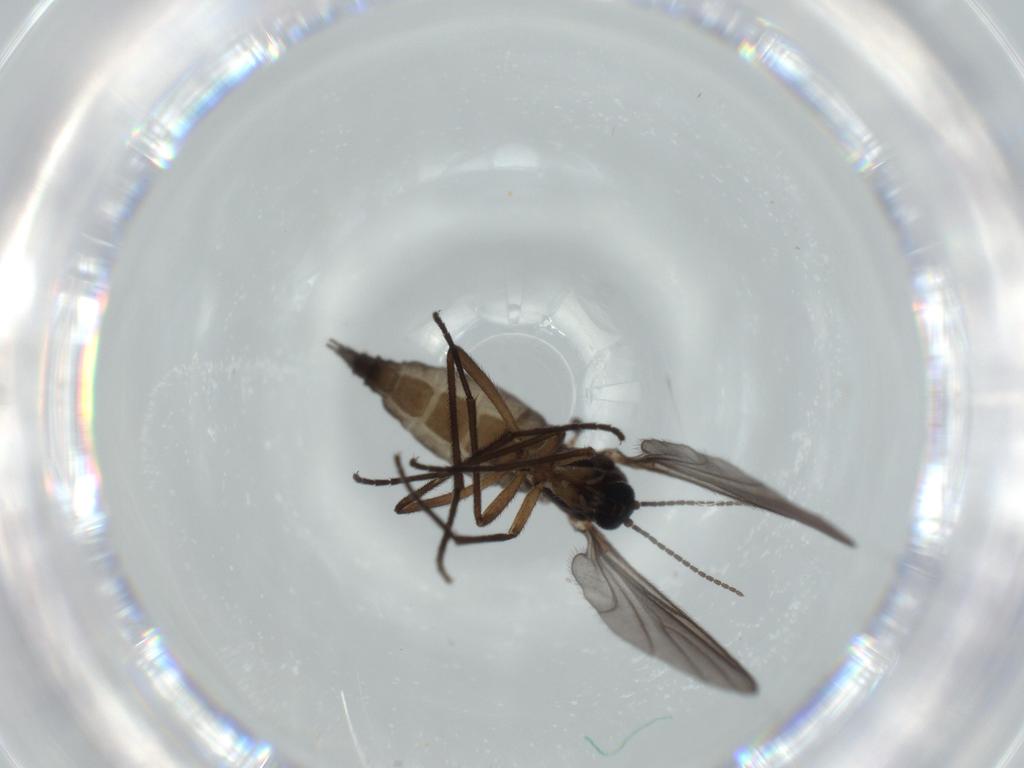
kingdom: Animalia
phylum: Arthropoda
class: Insecta
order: Diptera
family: Sciaridae
